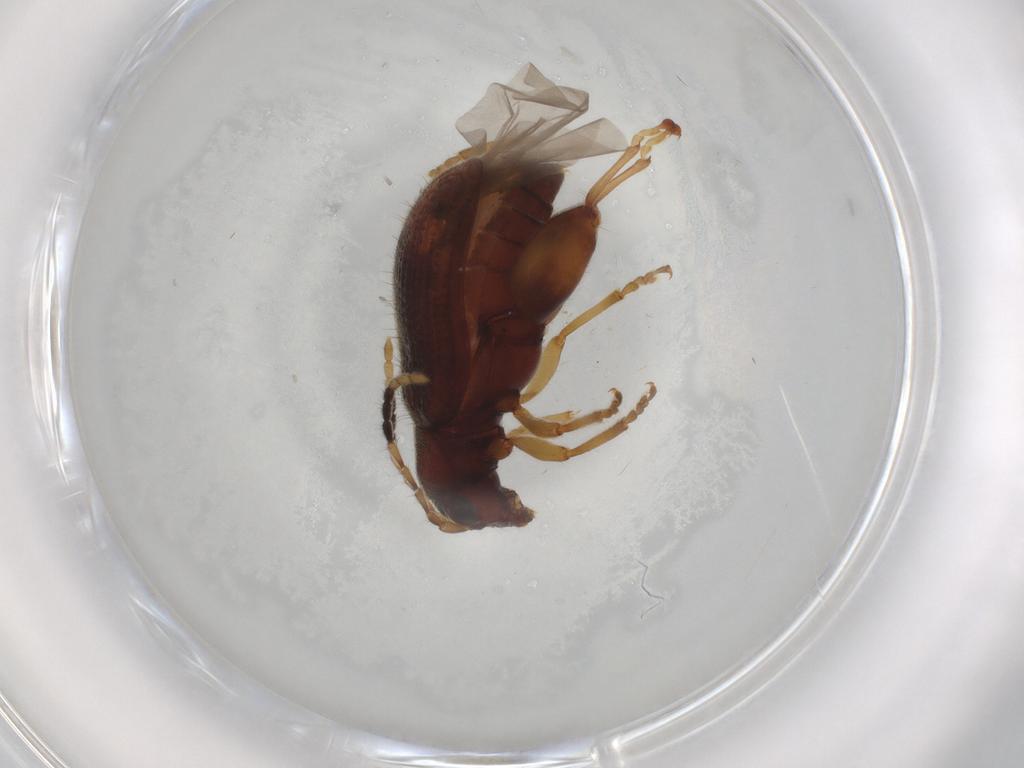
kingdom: Animalia
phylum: Arthropoda
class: Insecta
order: Coleoptera
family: Chrysomelidae
